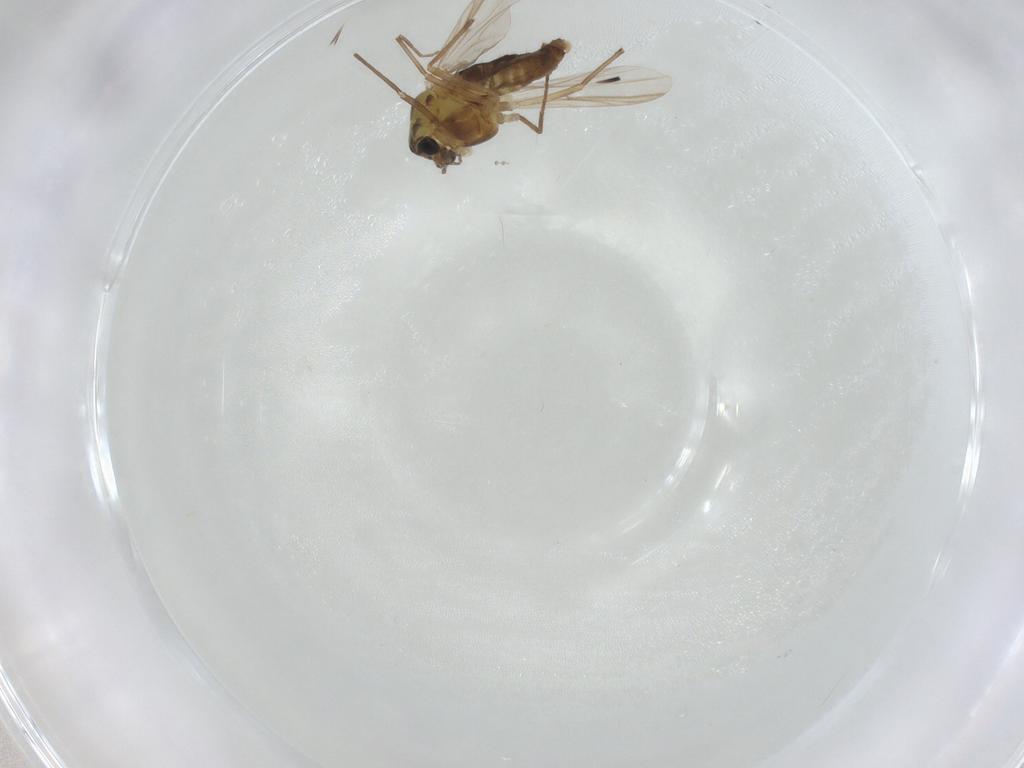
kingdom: Animalia
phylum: Arthropoda
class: Insecta
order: Diptera
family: Chironomidae
